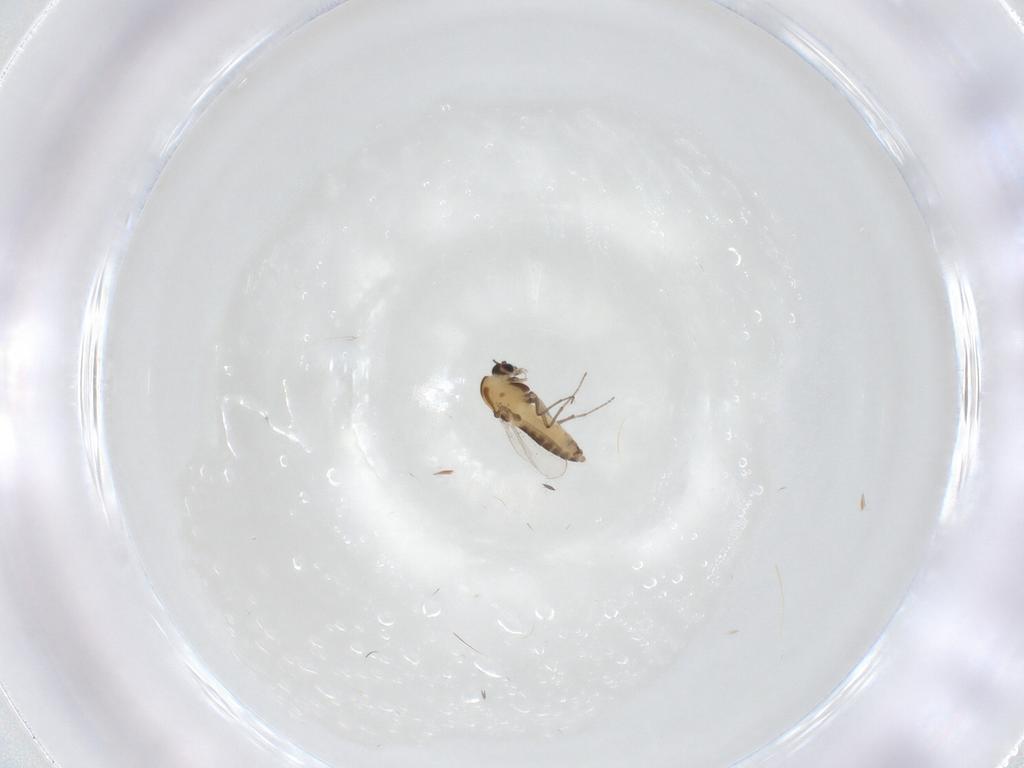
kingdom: Animalia
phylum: Arthropoda
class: Insecta
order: Diptera
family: Chironomidae
